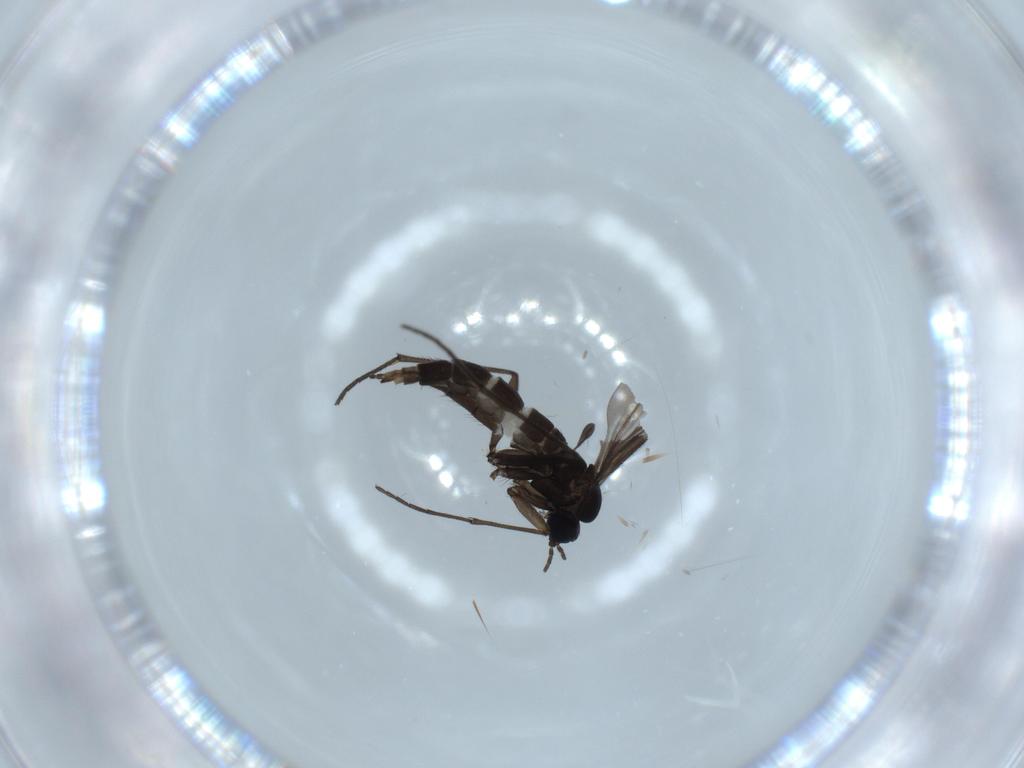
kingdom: Animalia
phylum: Arthropoda
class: Insecta
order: Diptera
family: Sciaridae
